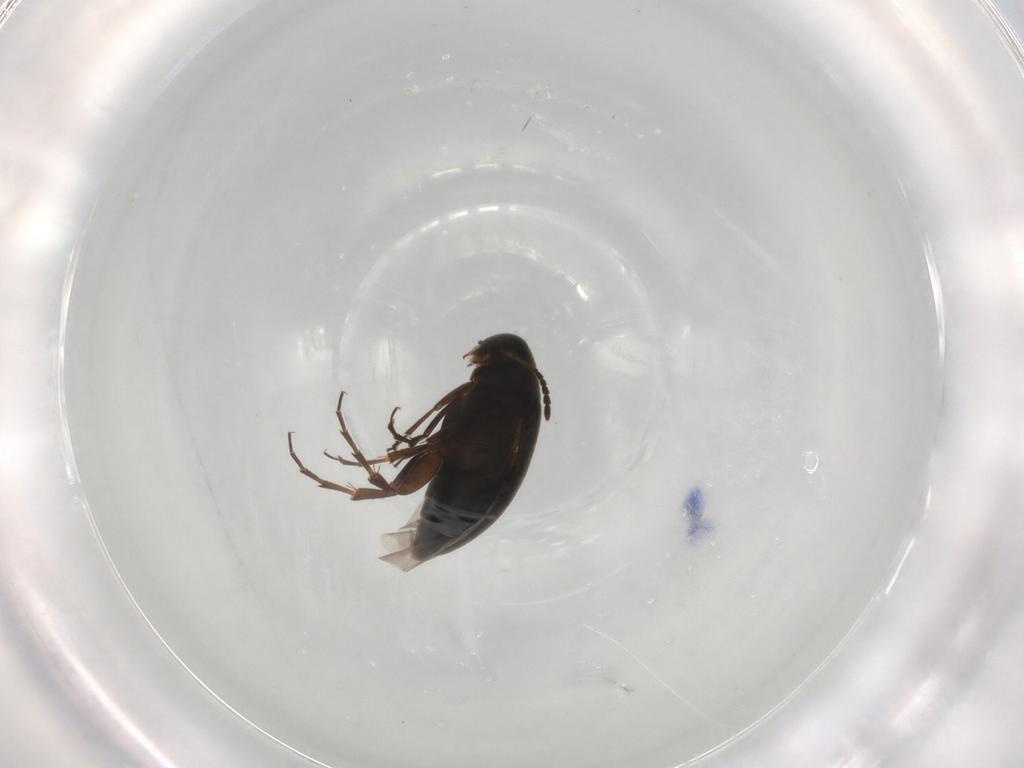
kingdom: Animalia
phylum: Arthropoda
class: Insecta
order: Coleoptera
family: Scraptiidae
